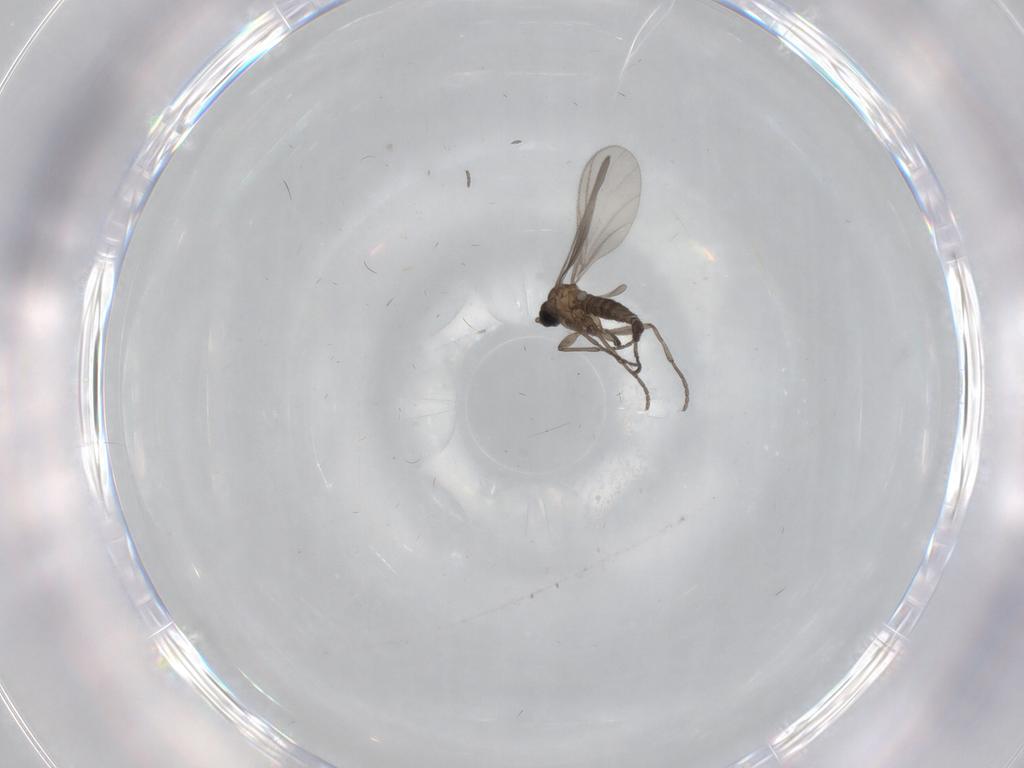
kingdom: Animalia
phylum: Arthropoda
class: Insecta
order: Diptera
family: Sciaridae
